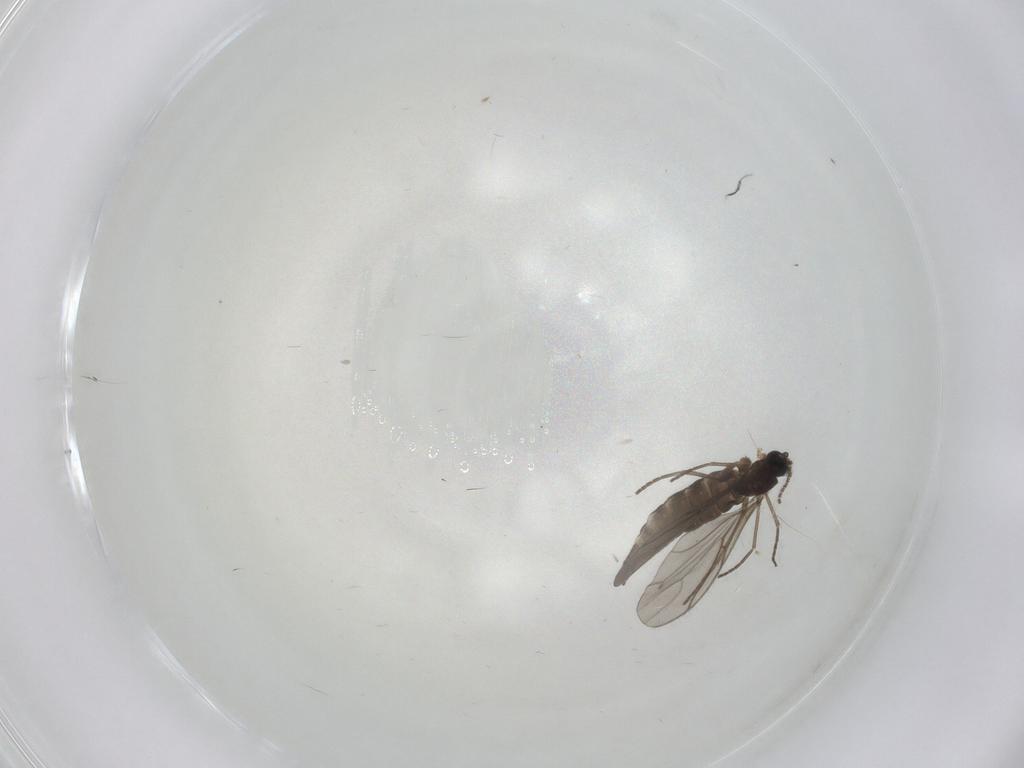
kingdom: Animalia
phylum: Arthropoda
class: Insecta
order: Diptera
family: Sciaridae
